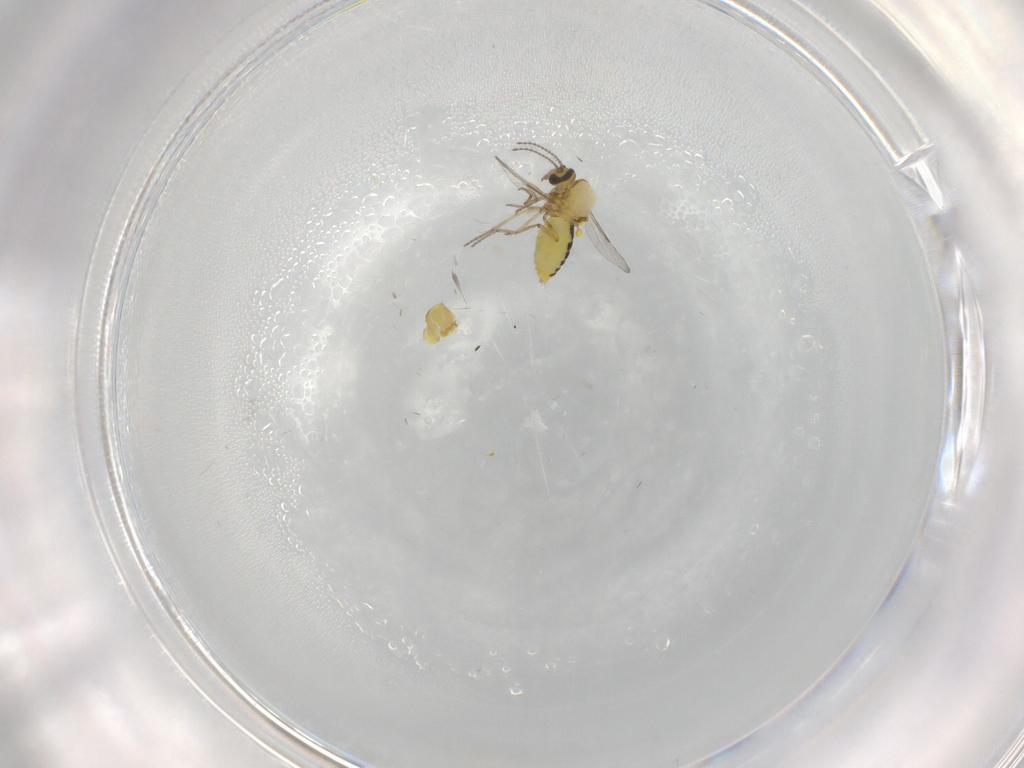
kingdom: Animalia
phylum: Arthropoda
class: Insecta
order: Diptera
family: Ceratopogonidae
